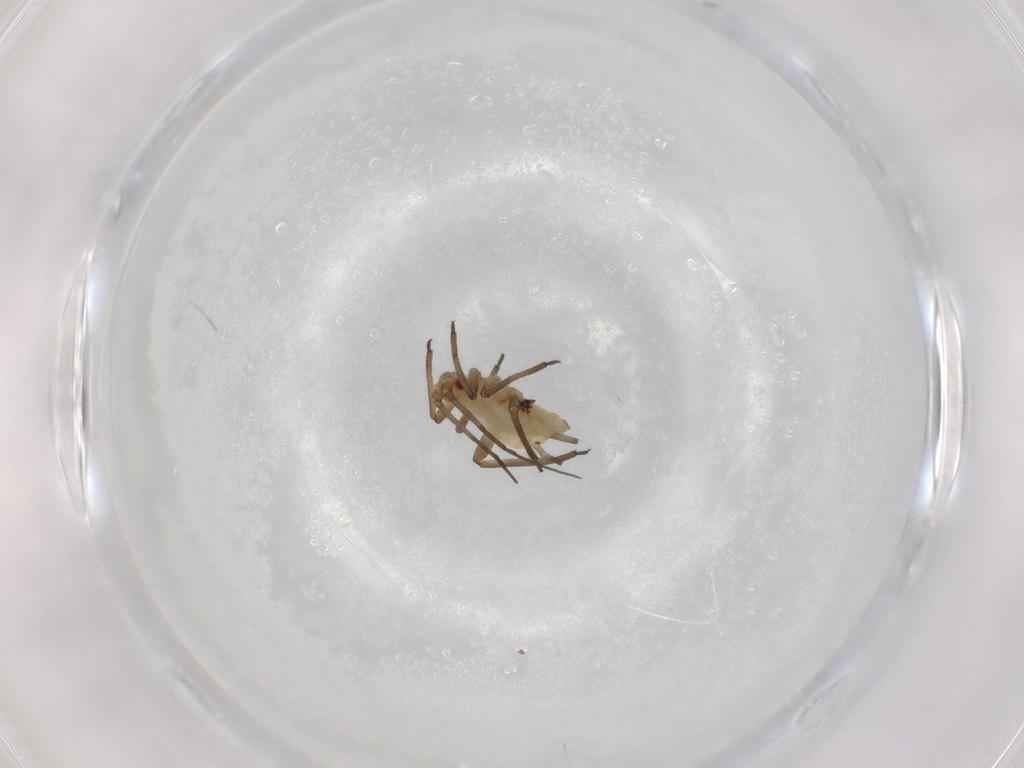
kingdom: Animalia
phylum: Arthropoda
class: Insecta
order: Hemiptera
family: Aphididae
